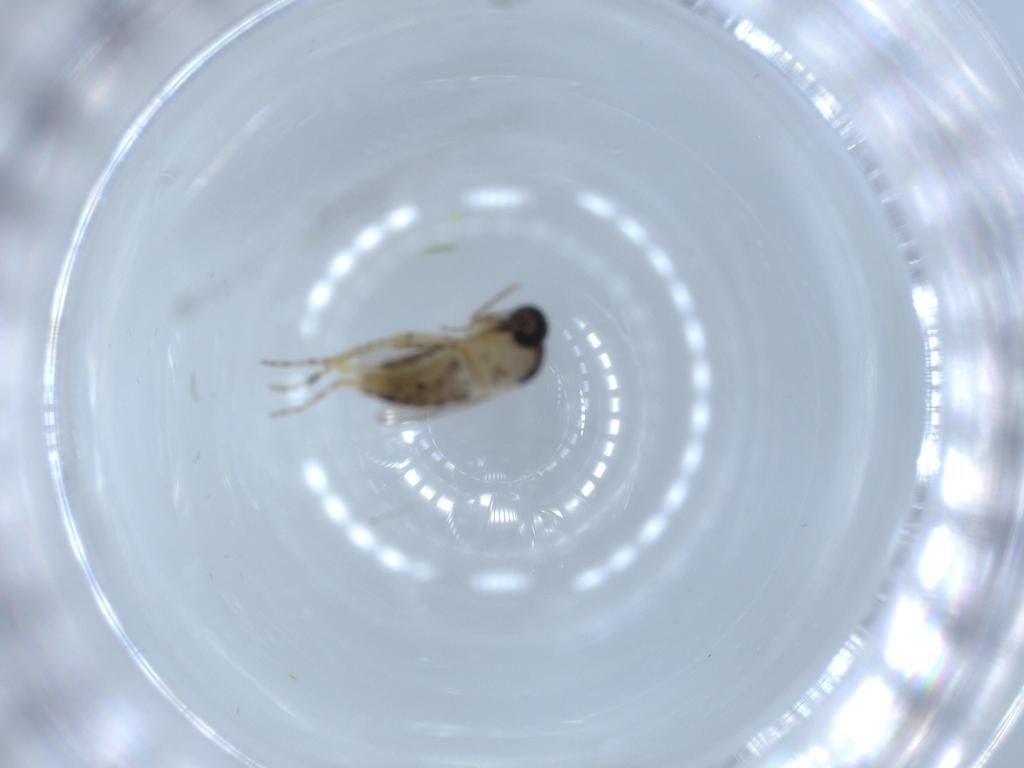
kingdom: Animalia
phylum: Arthropoda
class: Insecta
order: Diptera
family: Ceratopogonidae
